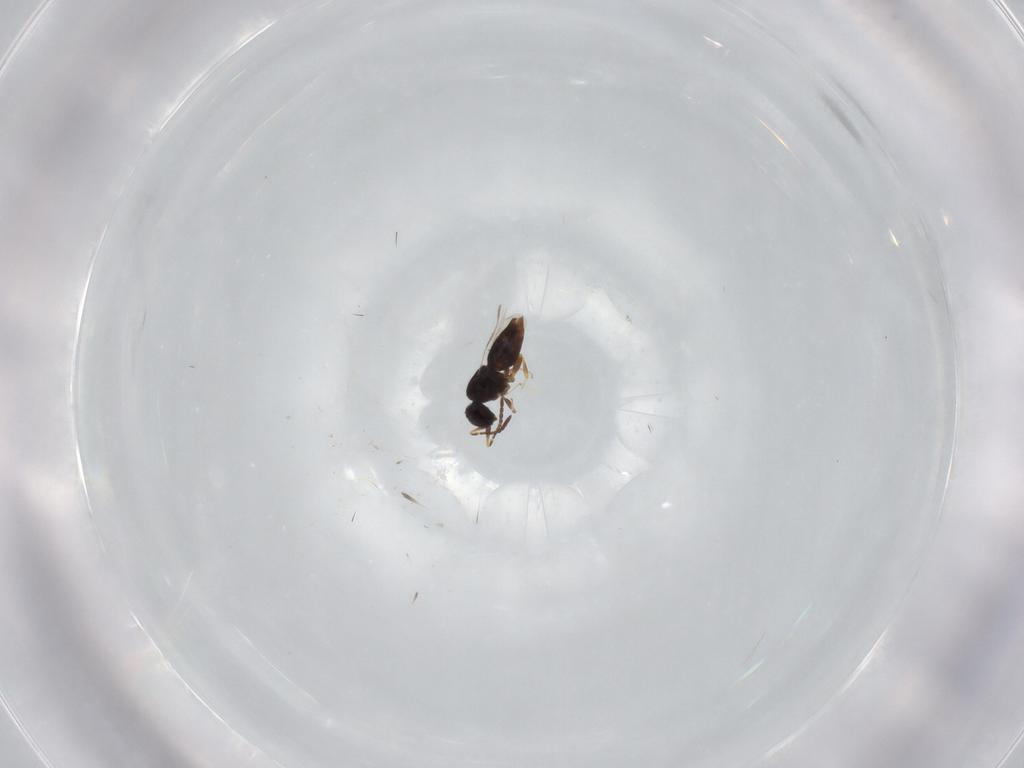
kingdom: Animalia
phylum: Arthropoda
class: Insecta
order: Hymenoptera
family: Ceraphronidae
